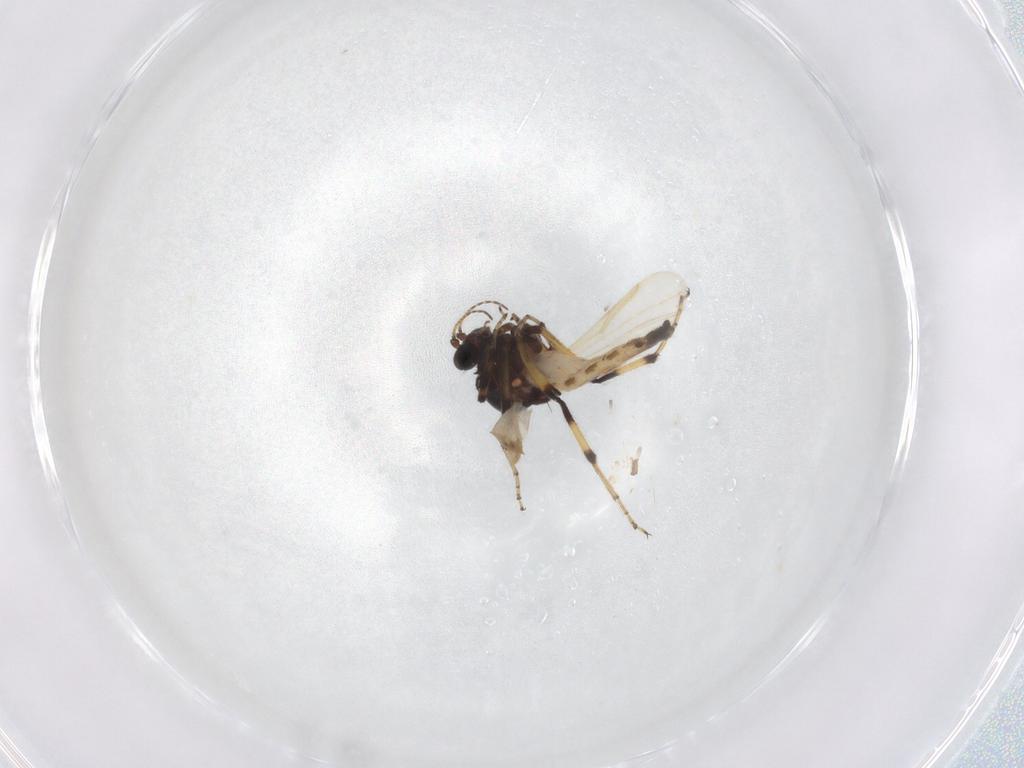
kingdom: Animalia
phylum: Arthropoda
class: Insecta
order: Diptera
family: Ceratopogonidae
